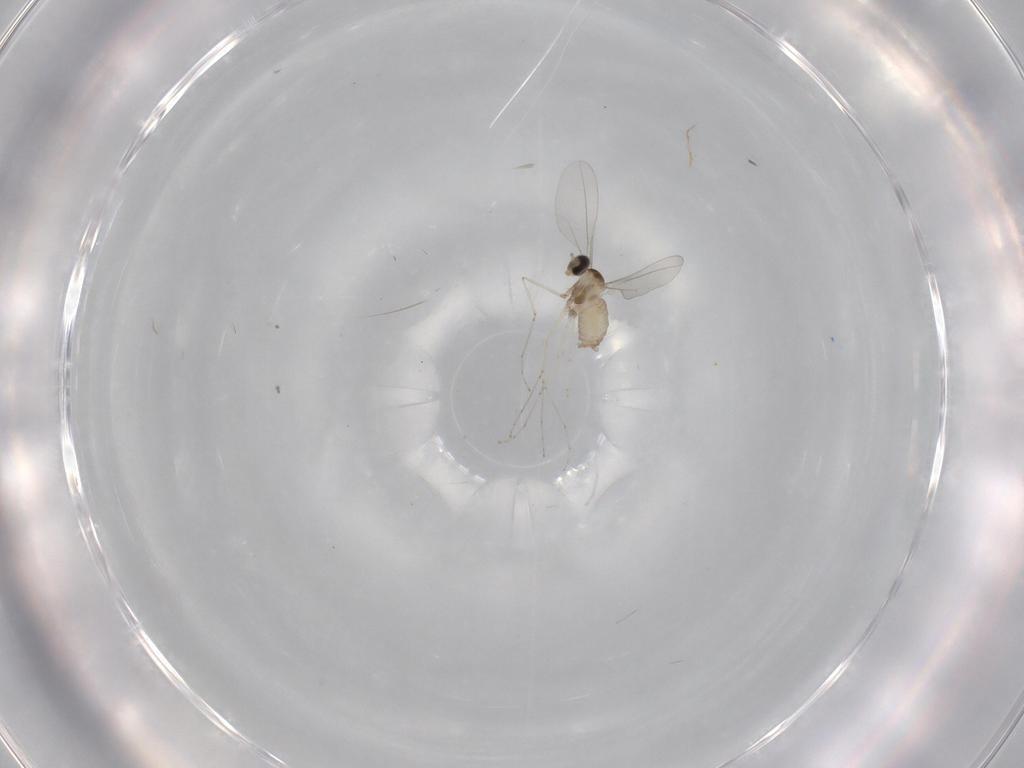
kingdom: Animalia
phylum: Arthropoda
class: Insecta
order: Diptera
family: Cecidomyiidae
